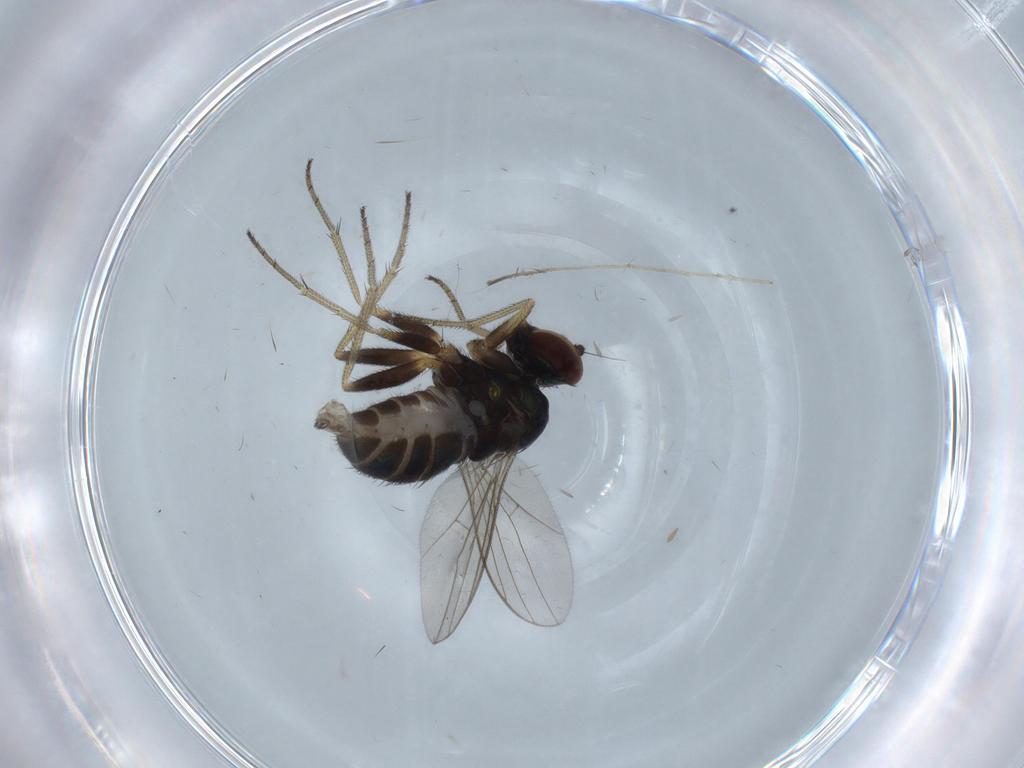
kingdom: Animalia
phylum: Arthropoda
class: Insecta
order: Diptera
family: Dolichopodidae
